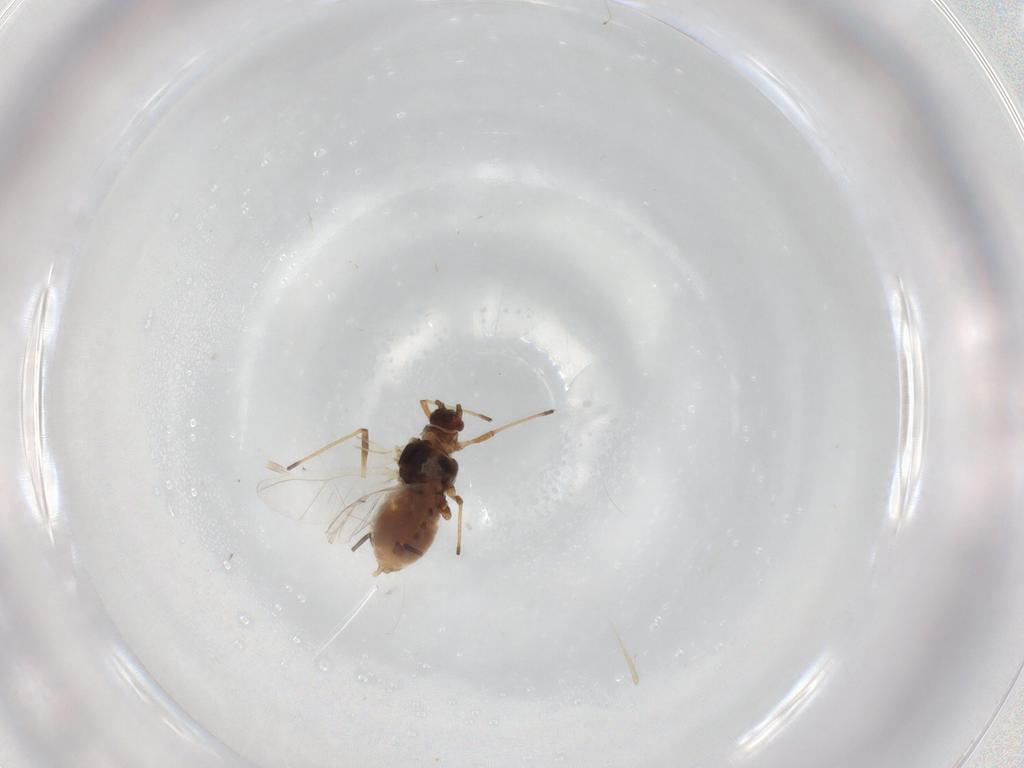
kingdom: Animalia
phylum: Arthropoda
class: Insecta
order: Hemiptera
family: Aphididae
